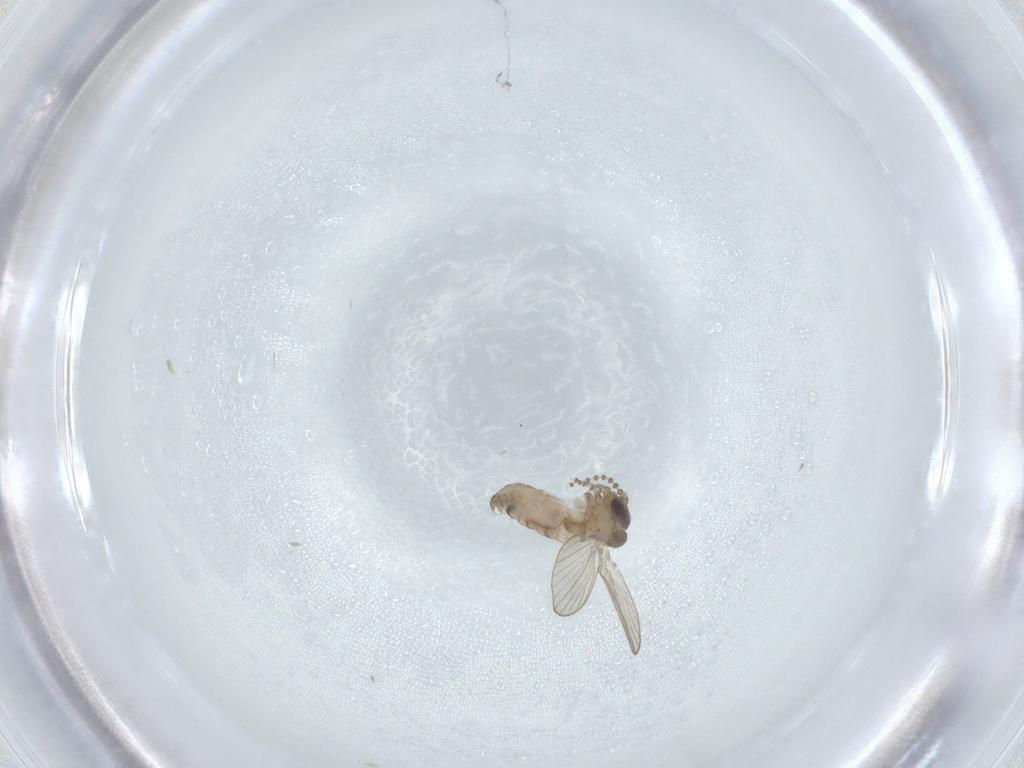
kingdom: Animalia
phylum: Arthropoda
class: Insecta
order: Diptera
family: Psychodidae
